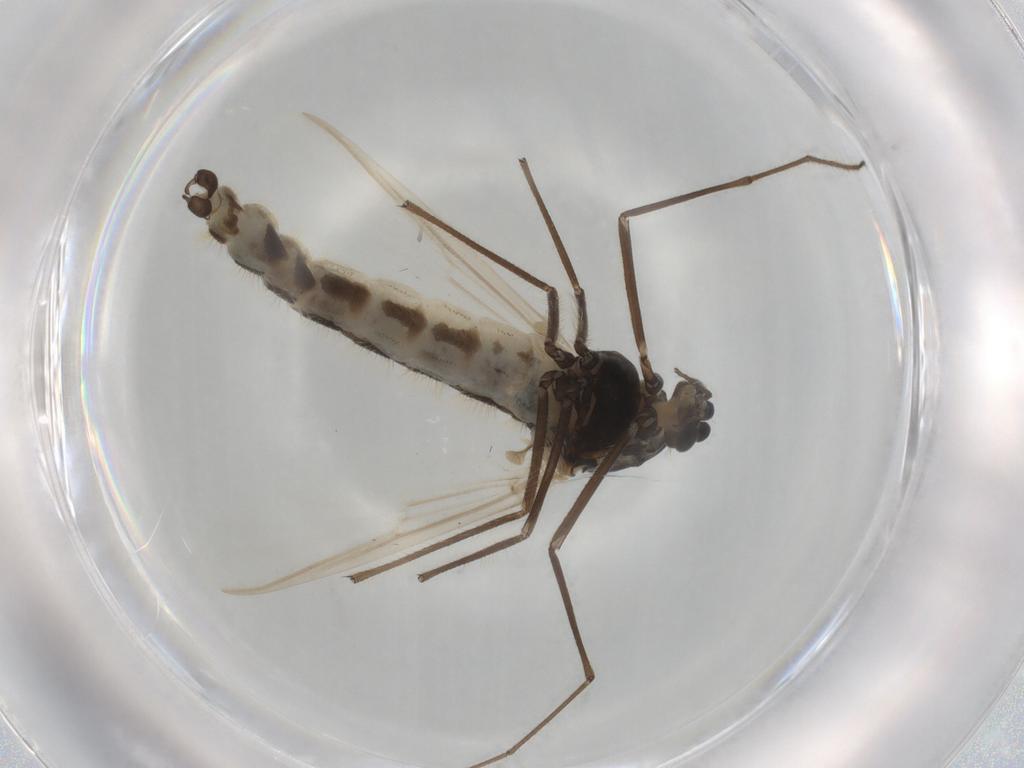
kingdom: Animalia
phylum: Arthropoda
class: Insecta
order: Diptera
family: Chironomidae
